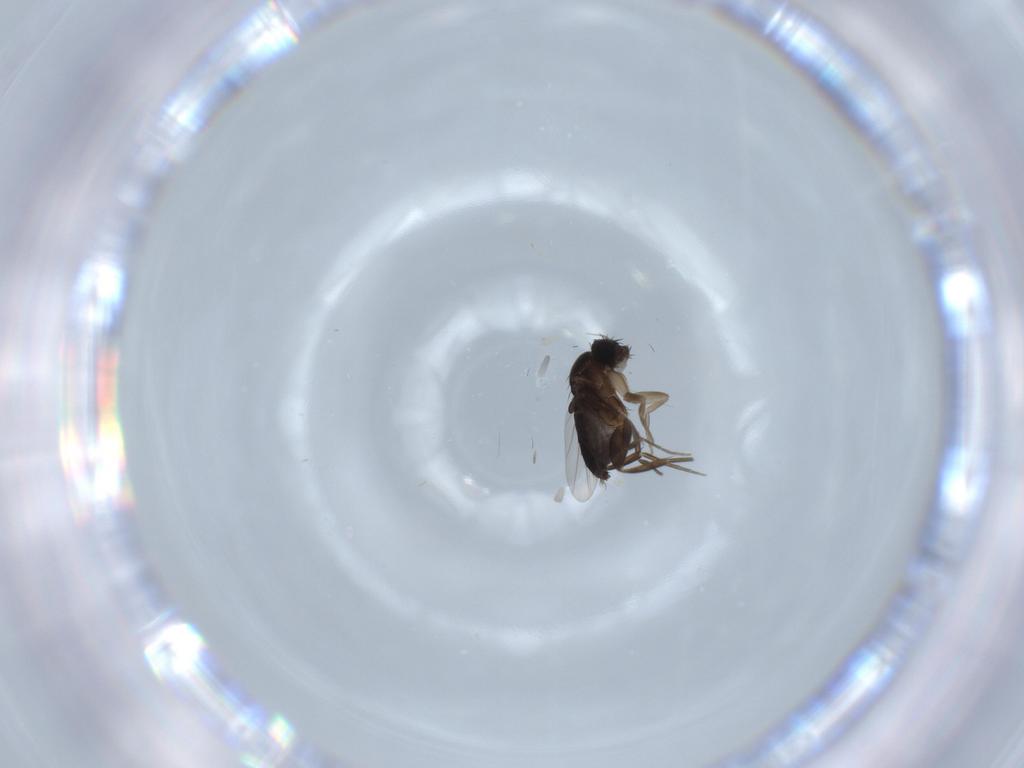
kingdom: Animalia
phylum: Arthropoda
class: Insecta
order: Diptera
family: Phoridae
